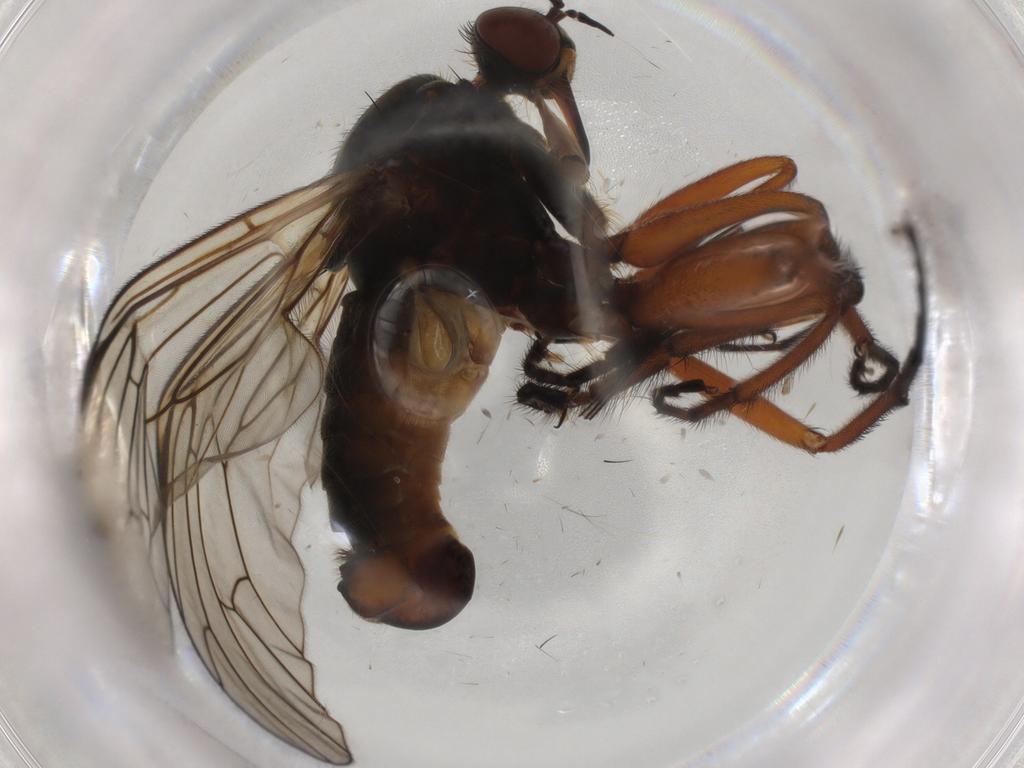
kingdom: Animalia
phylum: Arthropoda
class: Insecta
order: Diptera
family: Empididae
